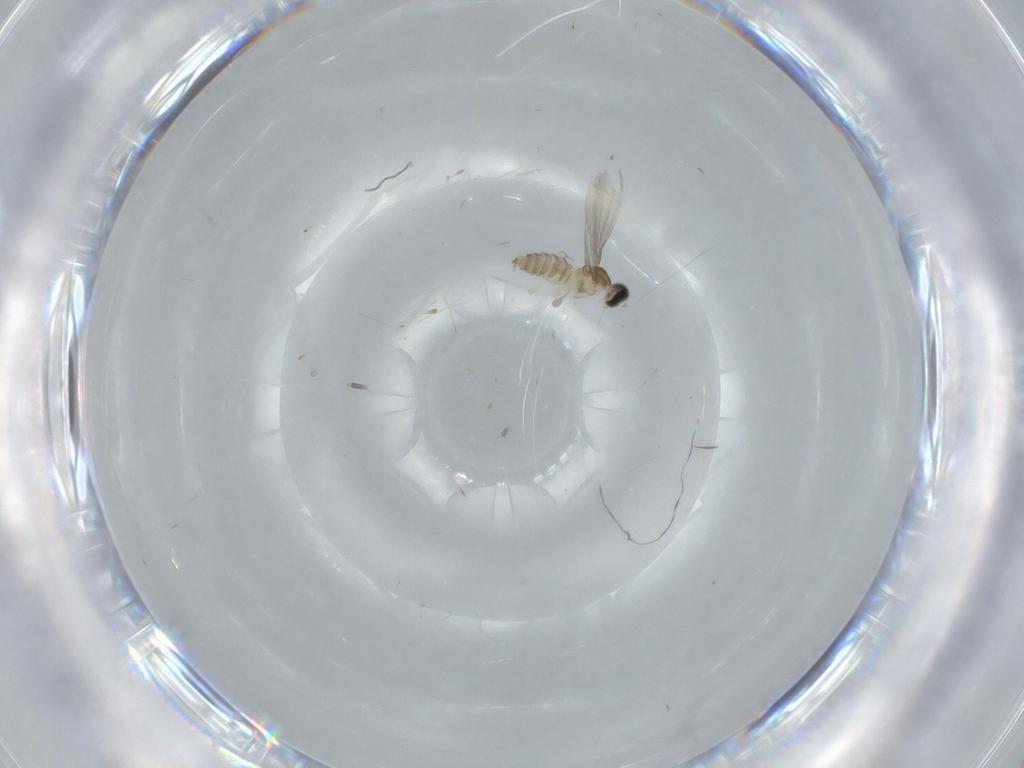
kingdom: Animalia
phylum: Arthropoda
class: Insecta
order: Diptera
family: Cecidomyiidae
